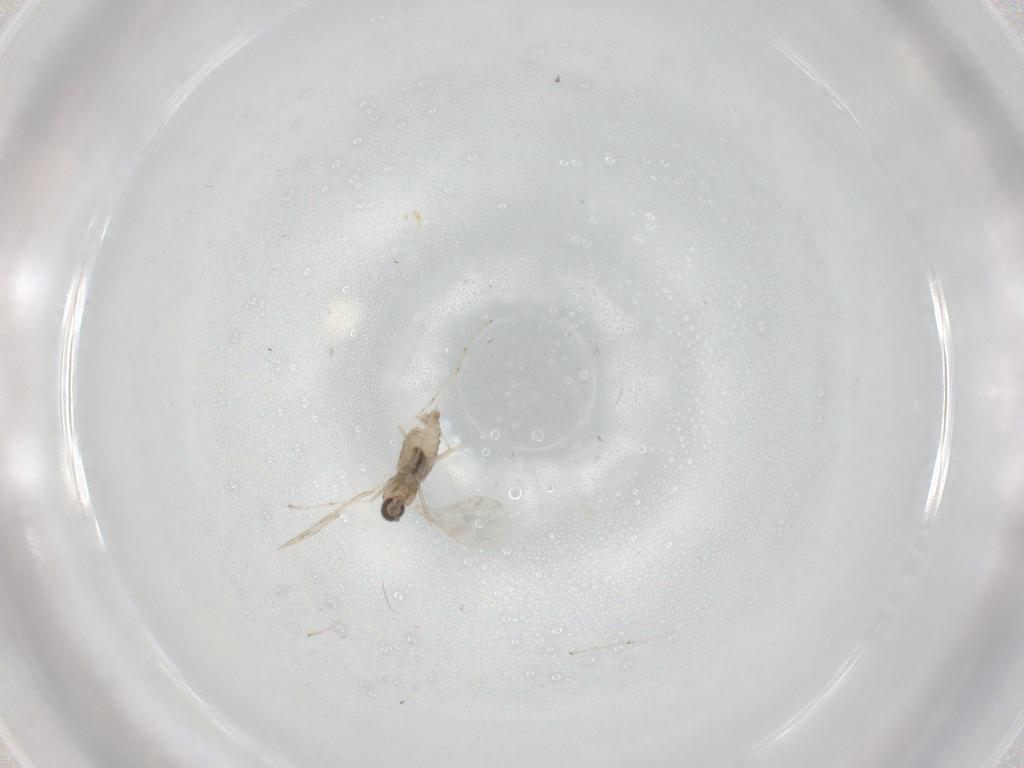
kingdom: Animalia
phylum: Arthropoda
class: Insecta
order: Diptera
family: Cecidomyiidae
